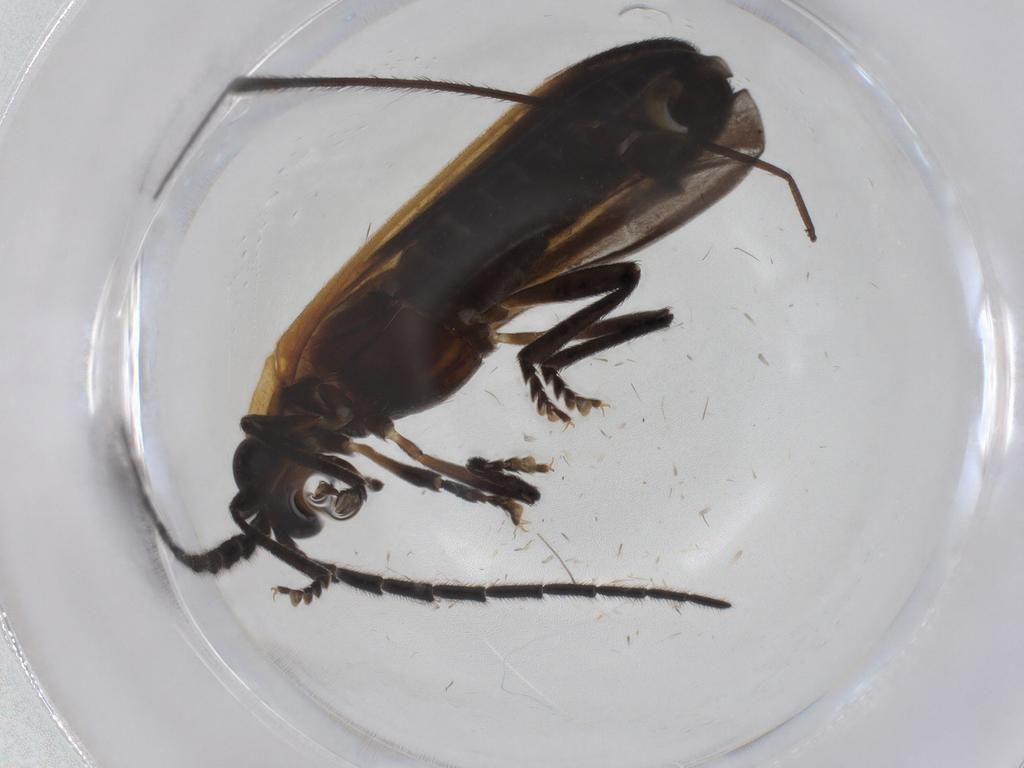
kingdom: Animalia
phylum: Arthropoda
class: Insecta
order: Coleoptera
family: Lycidae
